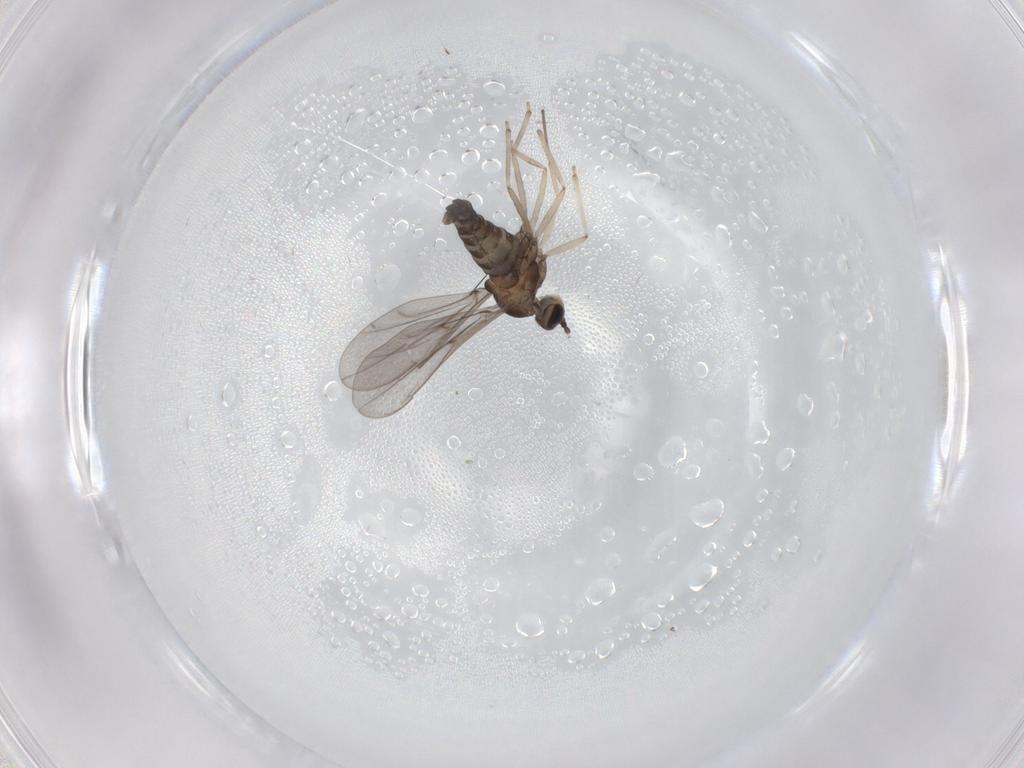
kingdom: Animalia
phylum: Arthropoda
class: Insecta
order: Diptera
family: Cecidomyiidae
